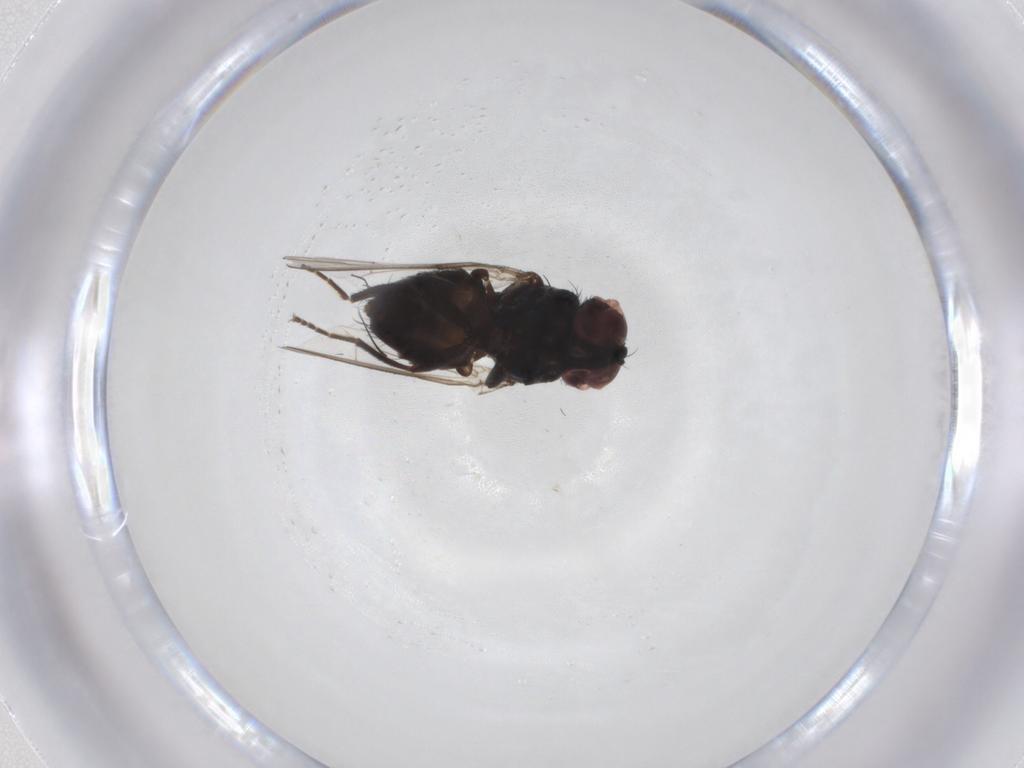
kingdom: Animalia
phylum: Arthropoda
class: Insecta
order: Diptera
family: Milichiidae
